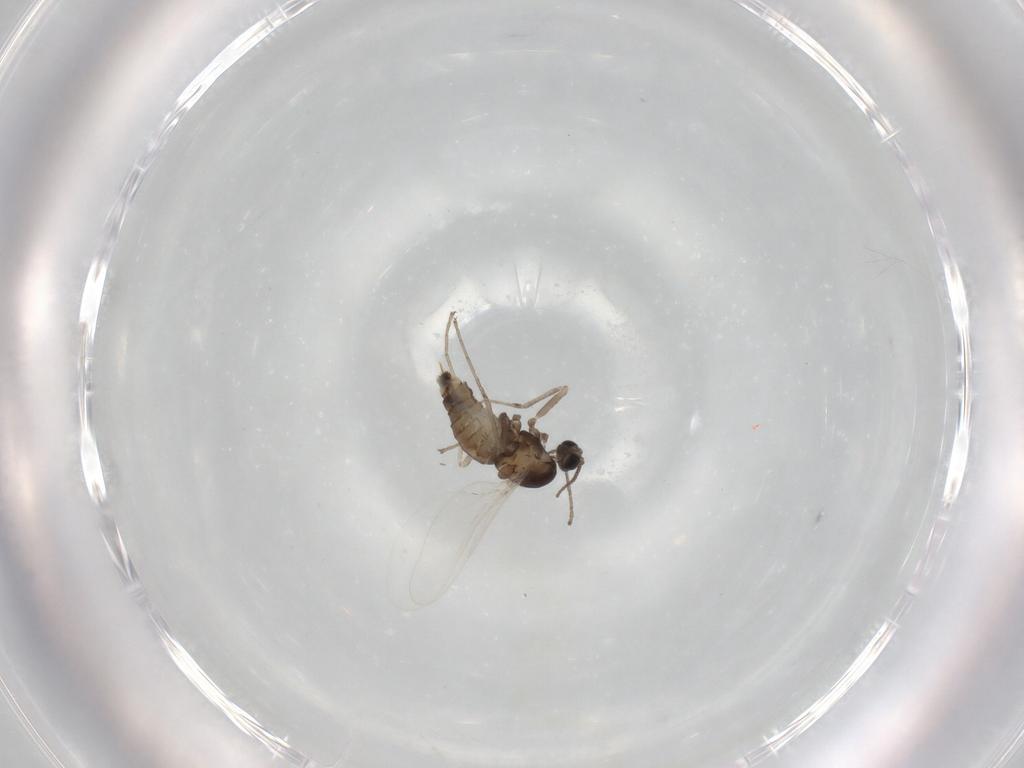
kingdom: Animalia
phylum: Arthropoda
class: Insecta
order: Diptera
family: Cecidomyiidae
